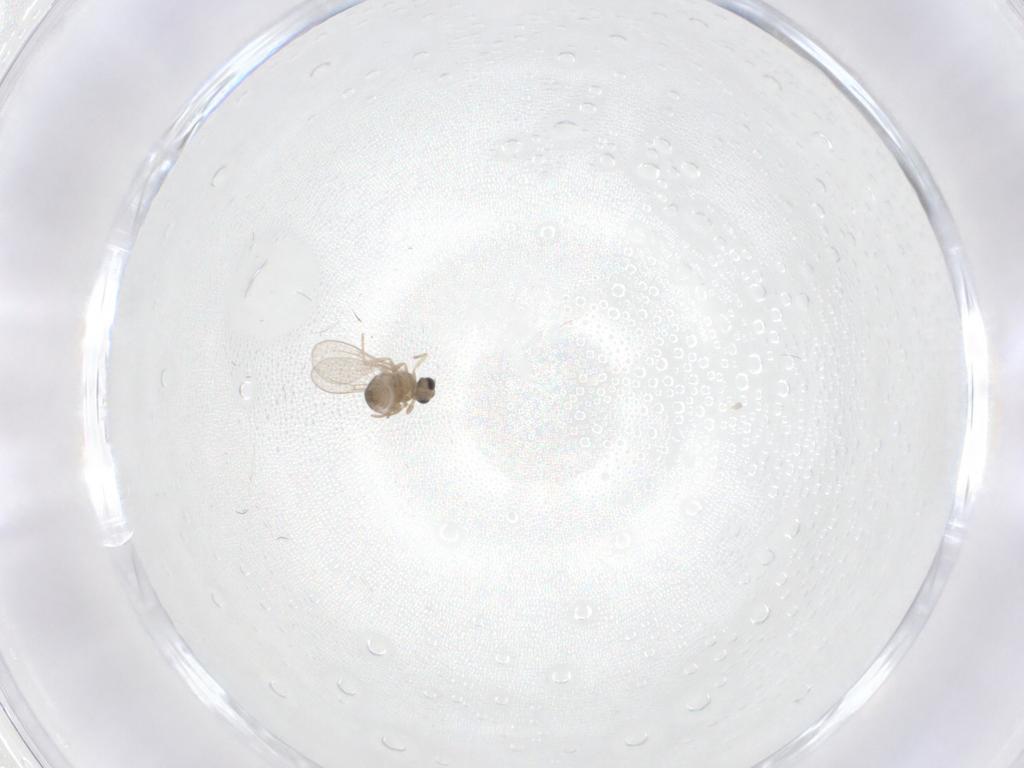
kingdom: Animalia
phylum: Arthropoda
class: Insecta
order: Diptera
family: Cecidomyiidae
